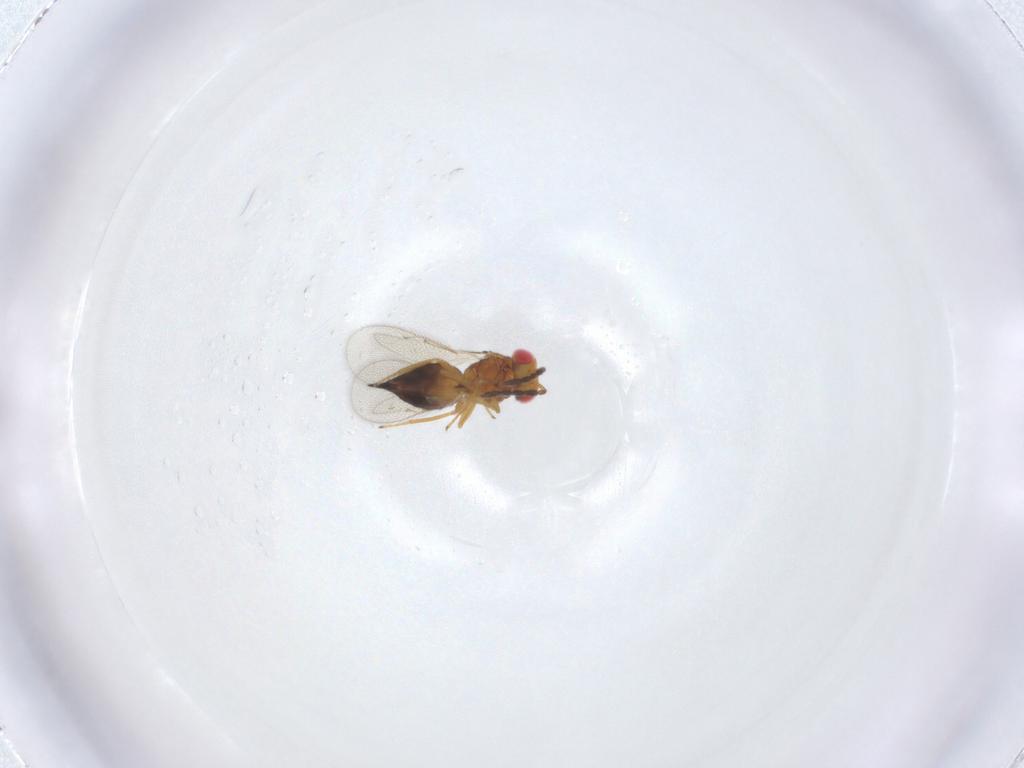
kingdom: Animalia
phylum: Arthropoda
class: Insecta
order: Hymenoptera
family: Eulophidae
